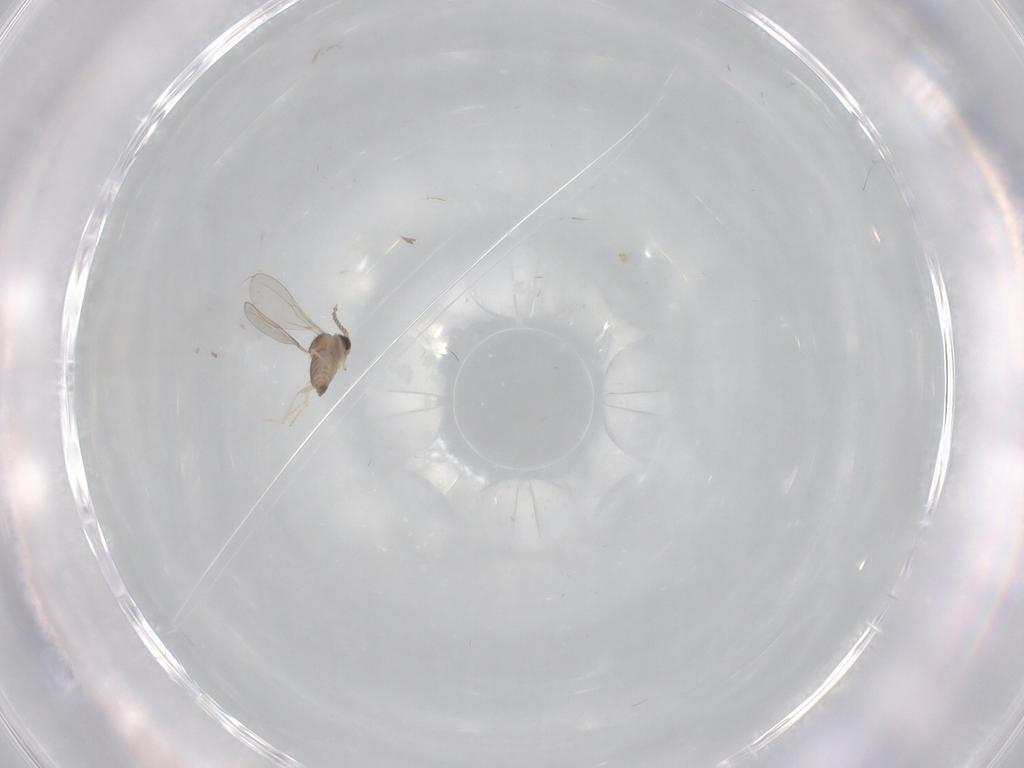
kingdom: Animalia
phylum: Arthropoda
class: Insecta
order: Diptera
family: Cecidomyiidae
